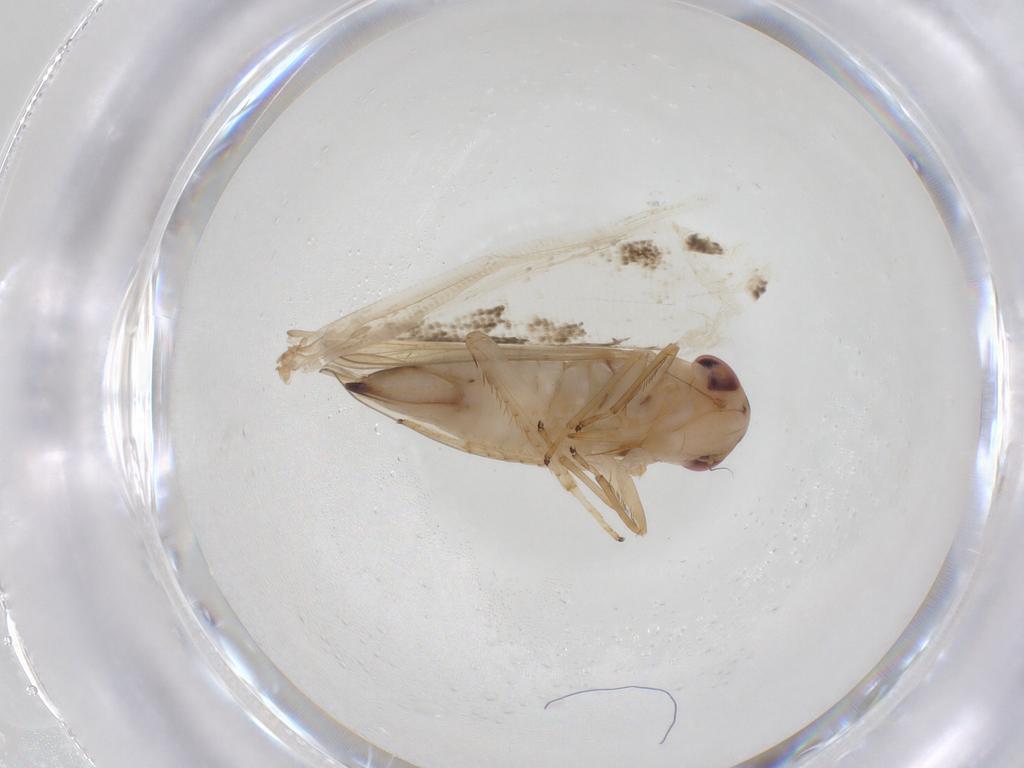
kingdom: Animalia
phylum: Arthropoda
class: Insecta
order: Hemiptera
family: Cicadellidae
